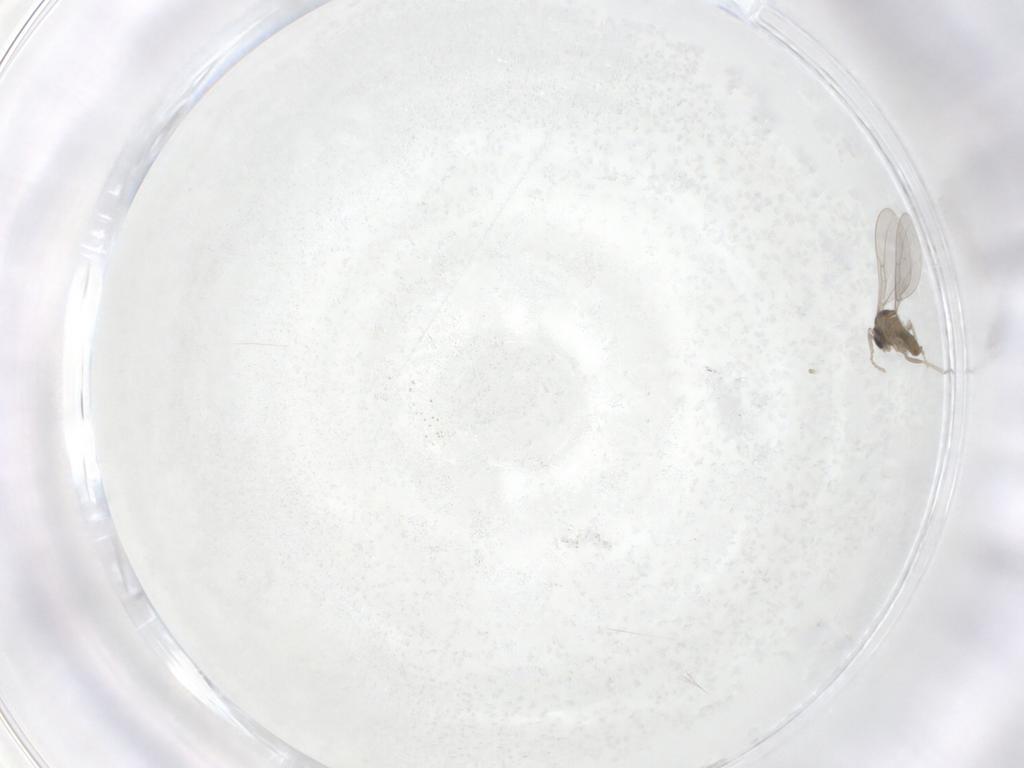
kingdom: Animalia
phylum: Arthropoda
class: Insecta
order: Diptera
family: Cecidomyiidae
